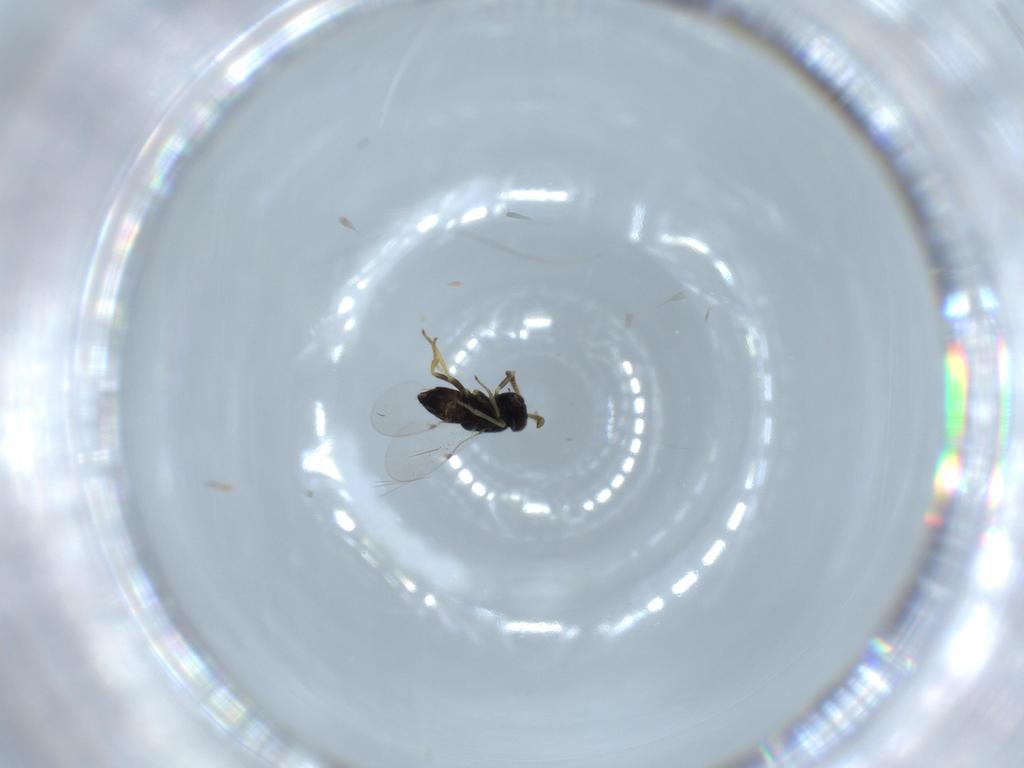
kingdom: Animalia
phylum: Arthropoda
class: Insecta
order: Hymenoptera
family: Encyrtidae
